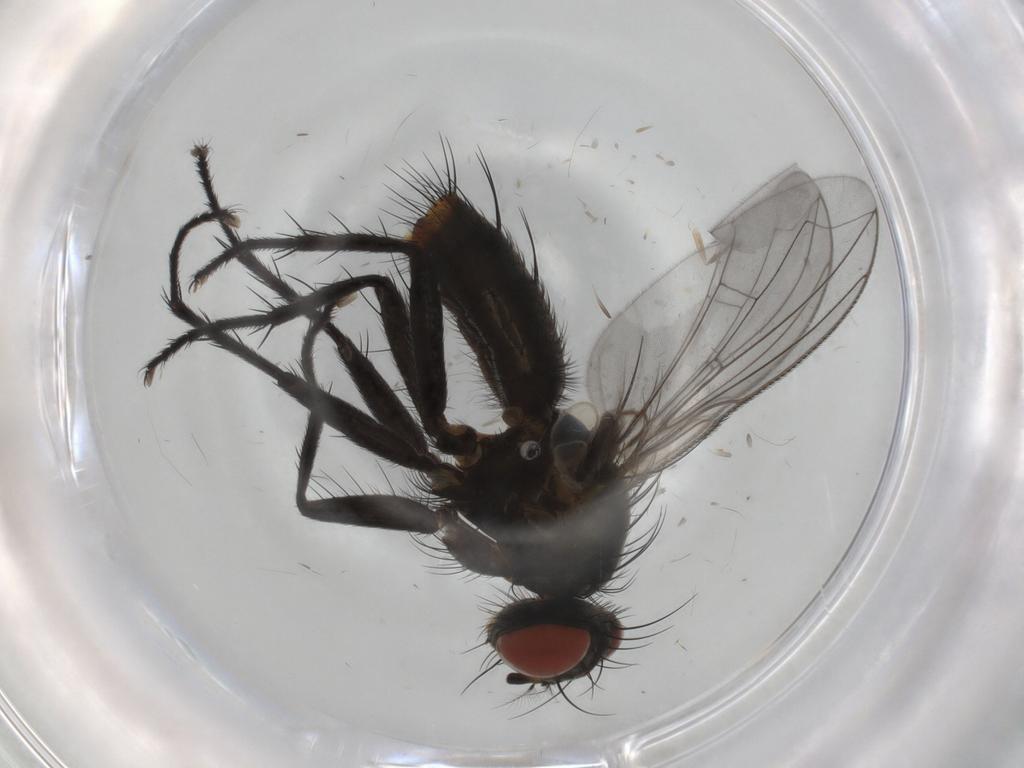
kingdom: Animalia
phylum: Arthropoda
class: Insecta
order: Diptera
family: Sarcophagidae
